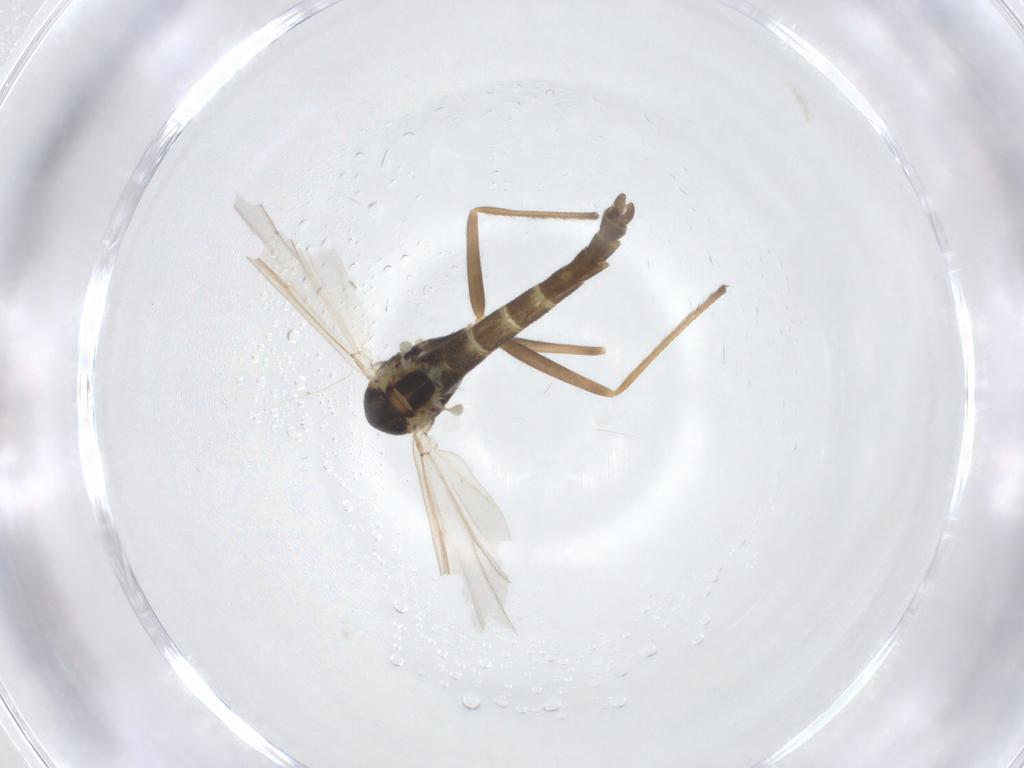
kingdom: Animalia
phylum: Arthropoda
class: Insecta
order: Diptera
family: Chironomidae
